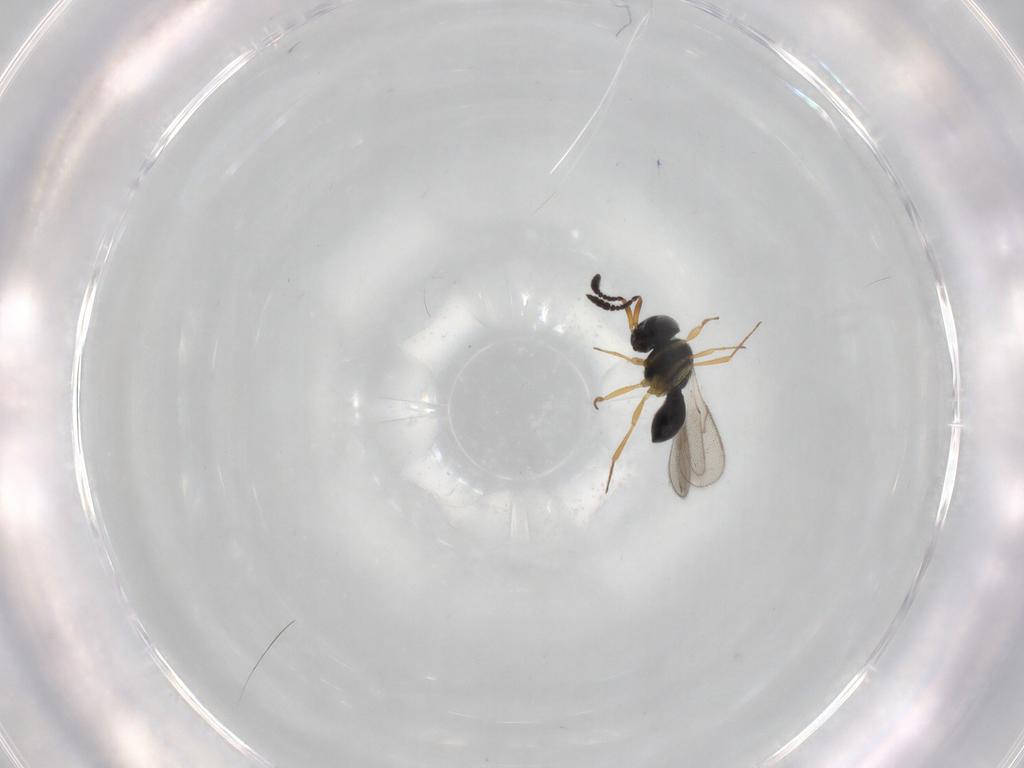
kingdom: Animalia
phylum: Arthropoda
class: Insecta
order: Hymenoptera
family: Scelionidae
